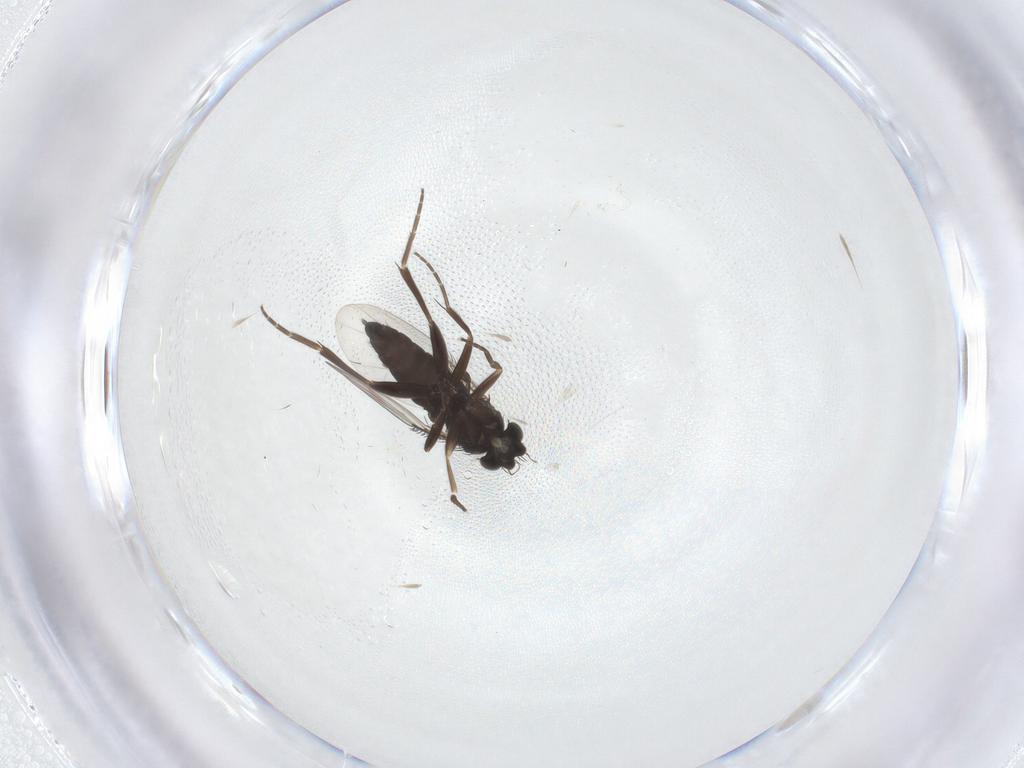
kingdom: Animalia
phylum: Arthropoda
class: Insecta
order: Diptera
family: Phoridae
